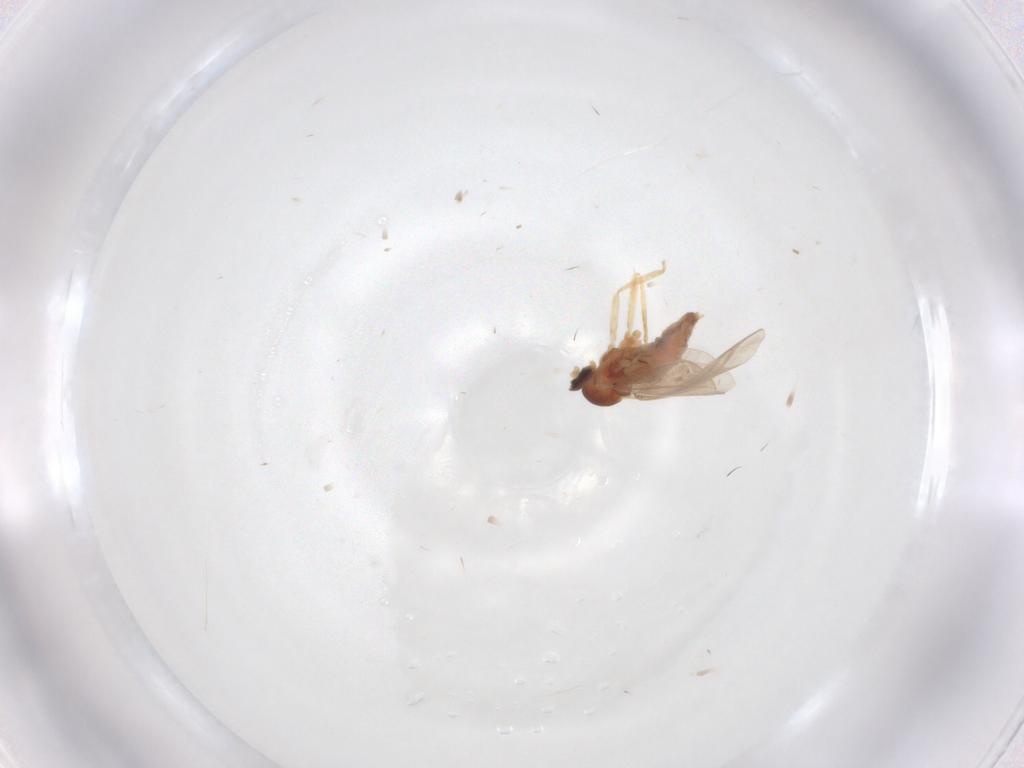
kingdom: Animalia
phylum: Arthropoda
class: Insecta
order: Diptera
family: Cecidomyiidae
